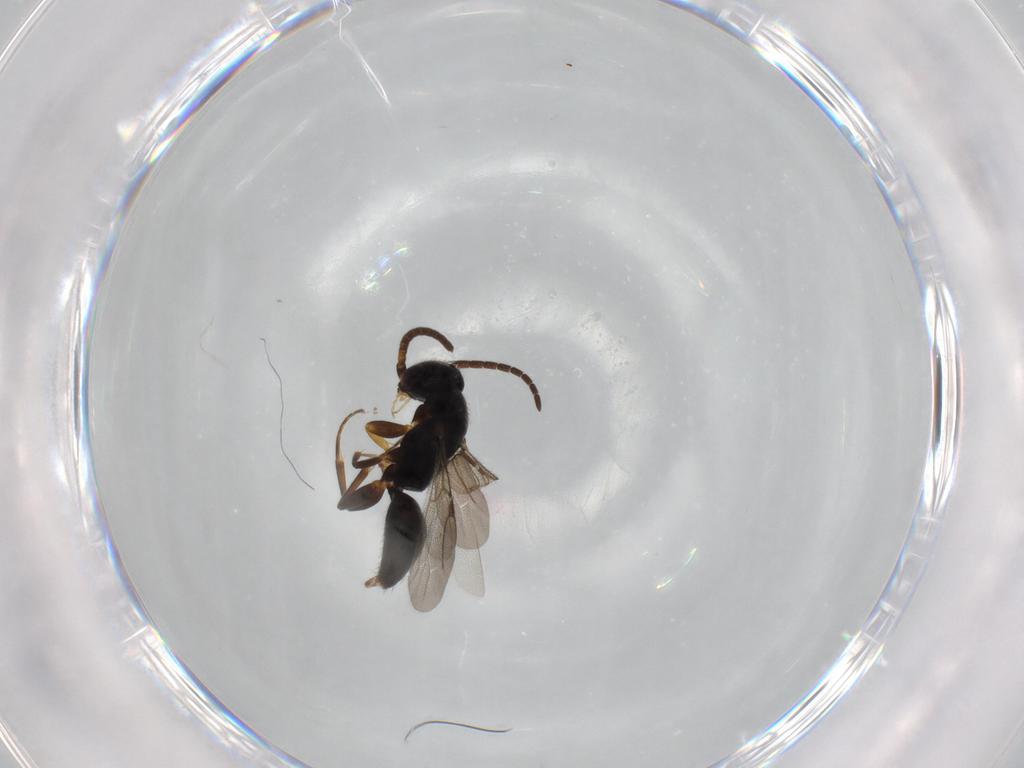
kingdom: Animalia
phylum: Arthropoda
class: Insecta
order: Hymenoptera
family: Bethylidae
